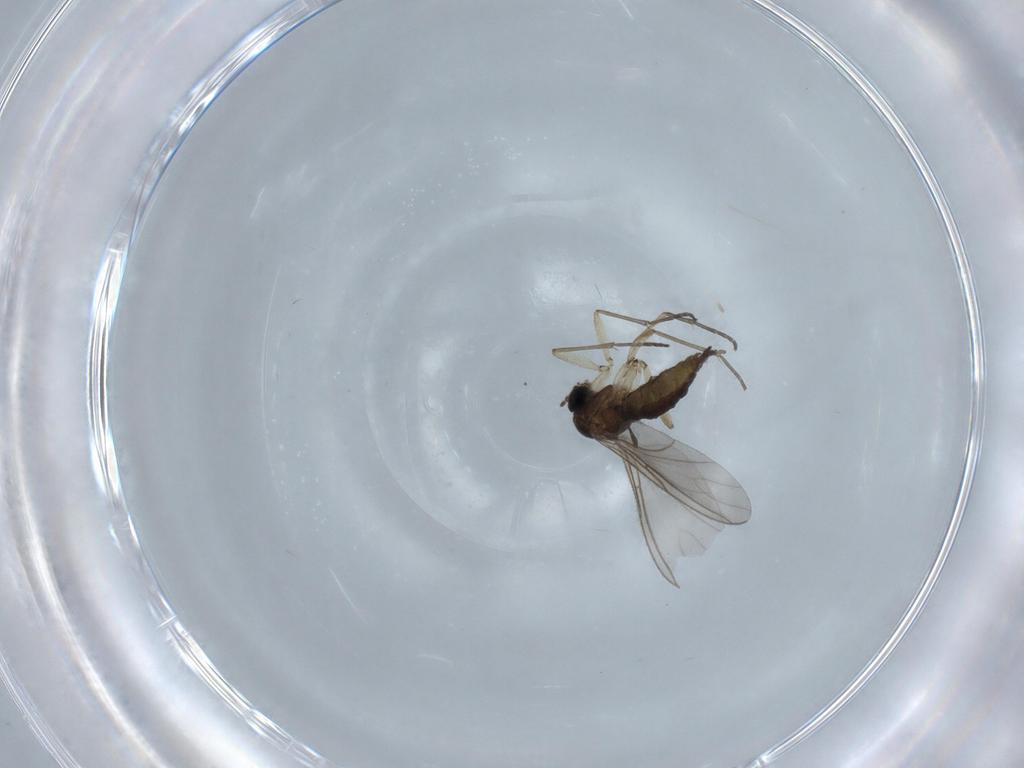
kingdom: Animalia
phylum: Arthropoda
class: Insecta
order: Diptera
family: Sciaridae
